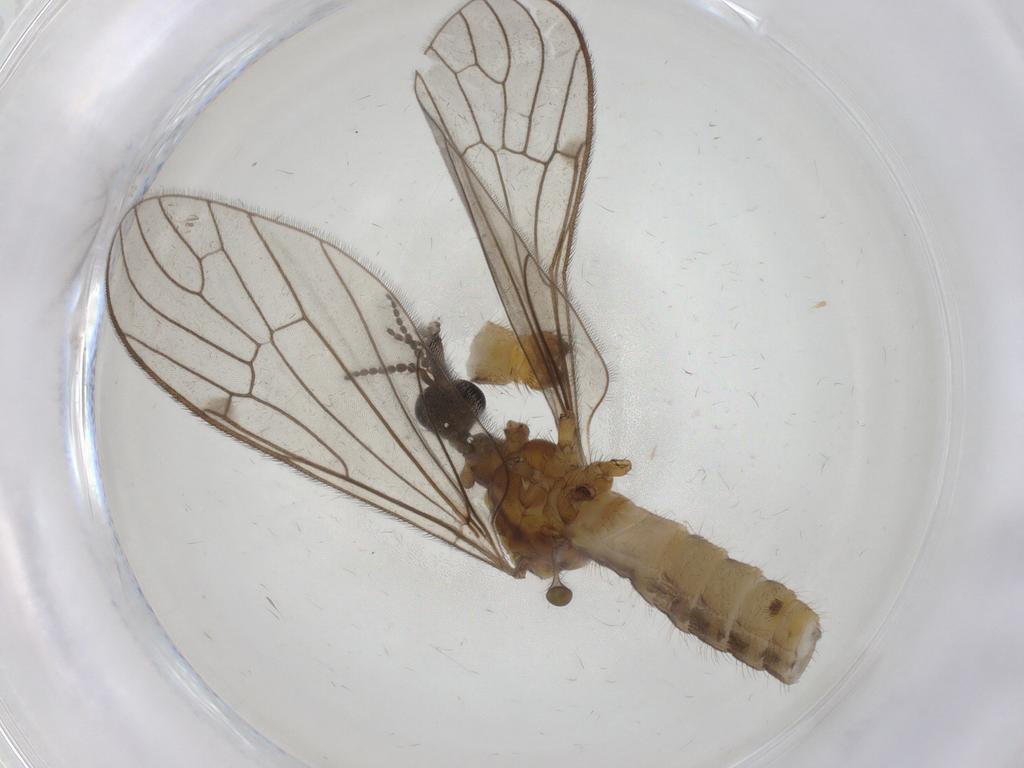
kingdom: Animalia
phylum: Arthropoda
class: Insecta
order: Diptera
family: Limoniidae
